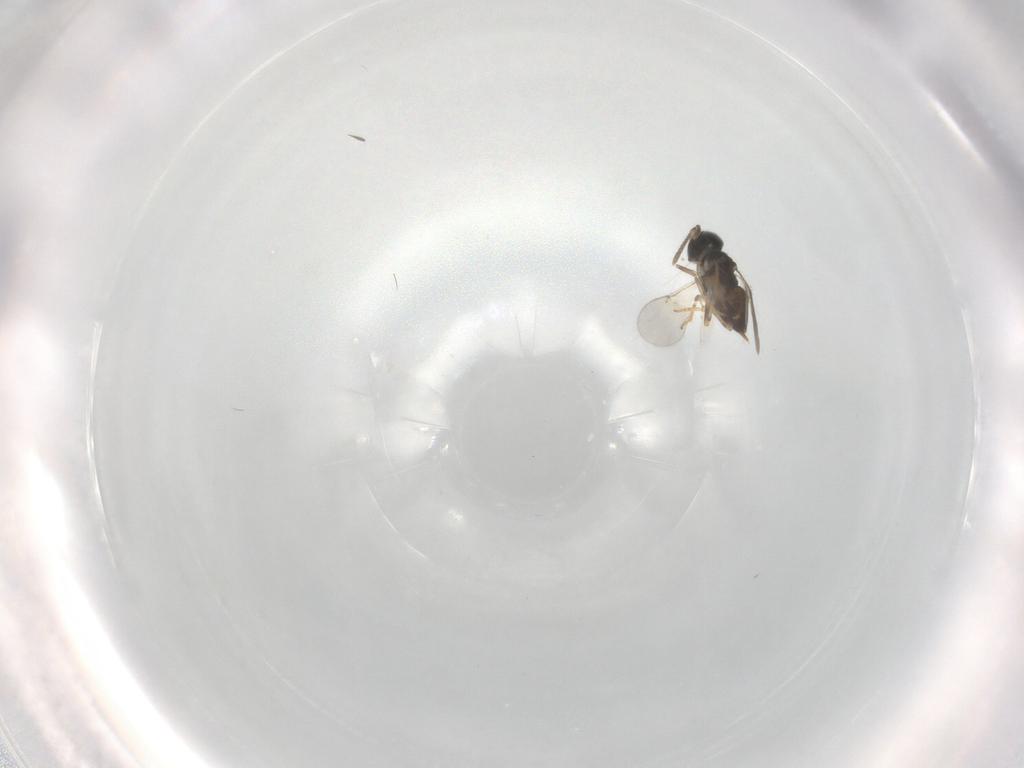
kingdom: Animalia
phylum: Arthropoda
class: Insecta
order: Hymenoptera
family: Encyrtidae
